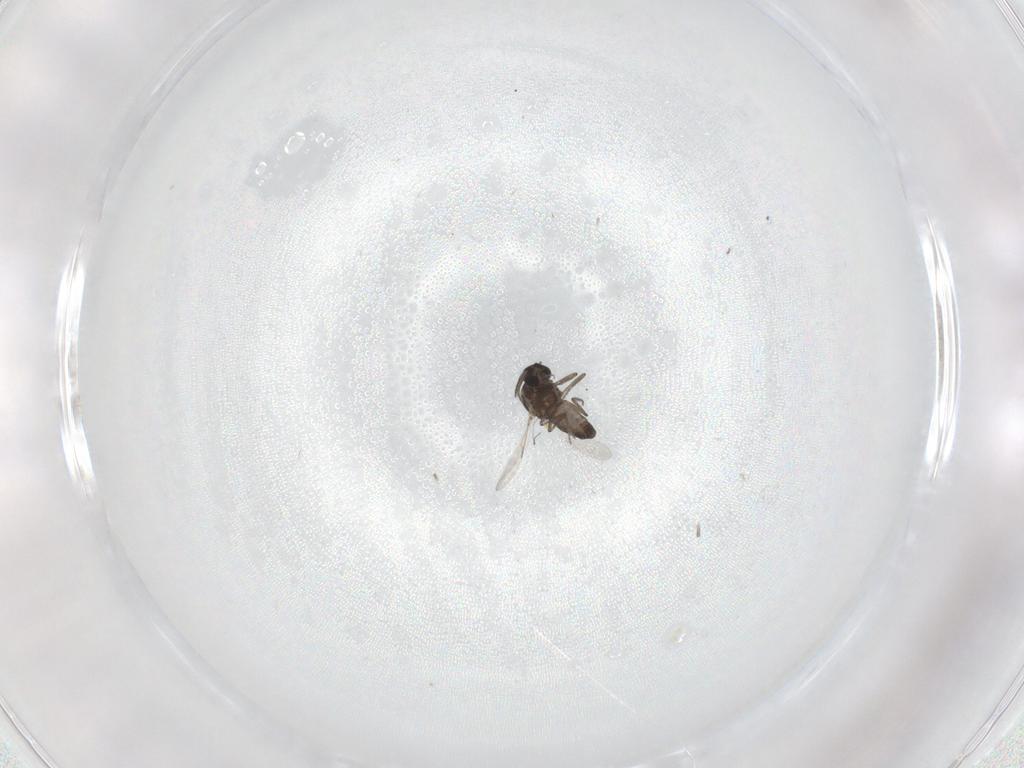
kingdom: Animalia
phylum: Arthropoda
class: Insecta
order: Diptera
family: Ceratopogonidae
